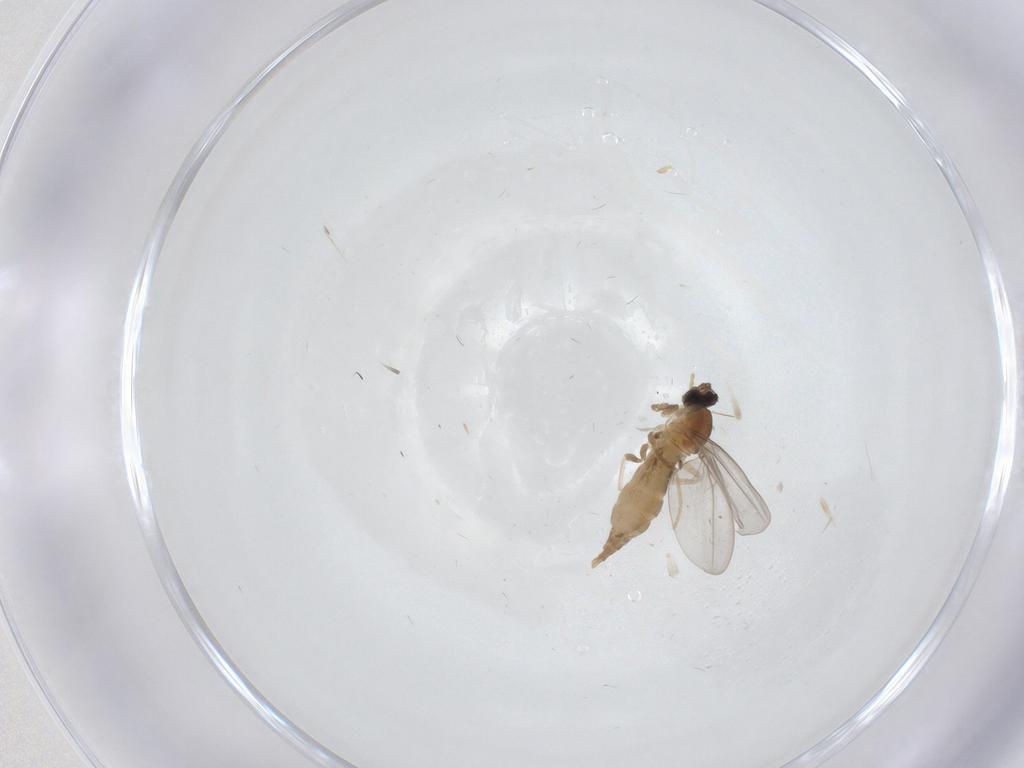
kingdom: Animalia
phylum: Arthropoda
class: Insecta
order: Diptera
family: Cecidomyiidae
